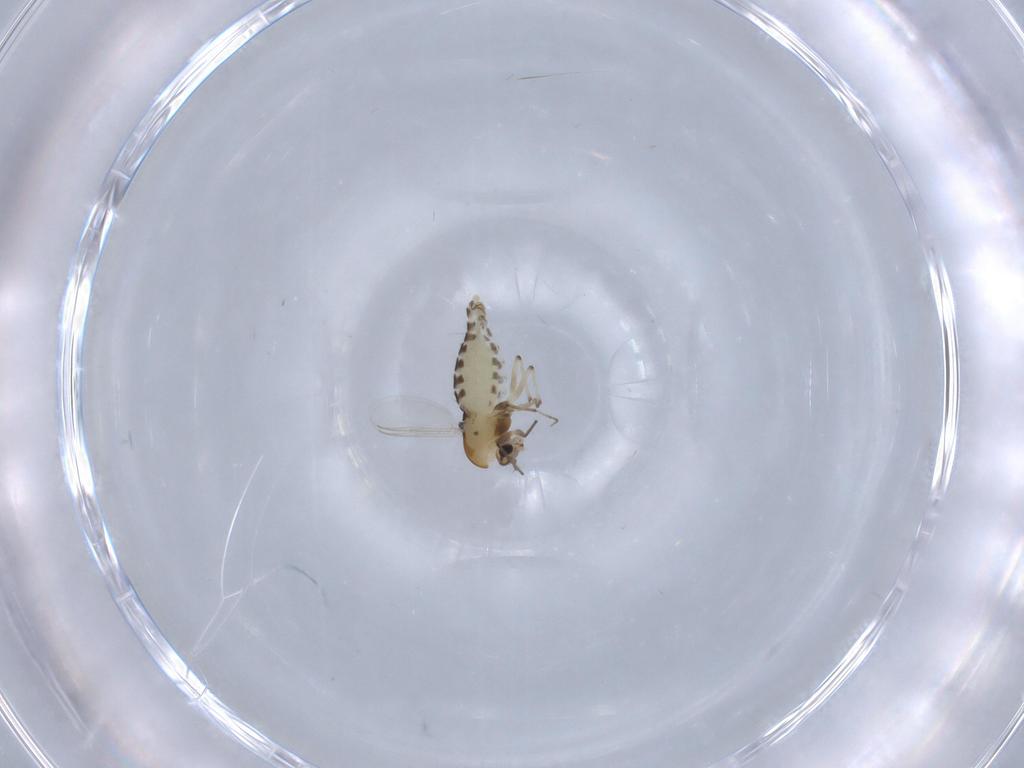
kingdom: Animalia
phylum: Arthropoda
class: Insecta
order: Diptera
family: Chironomidae
